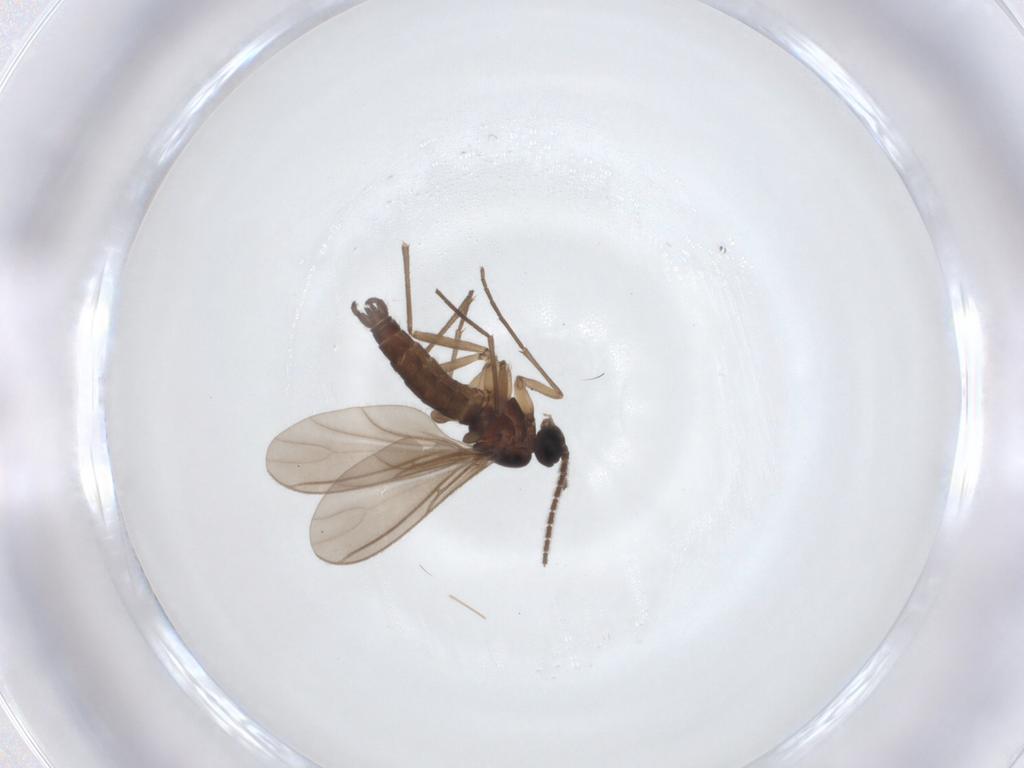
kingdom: Animalia
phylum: Arthropoda
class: Insecta
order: Diptera
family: Sciaridae
